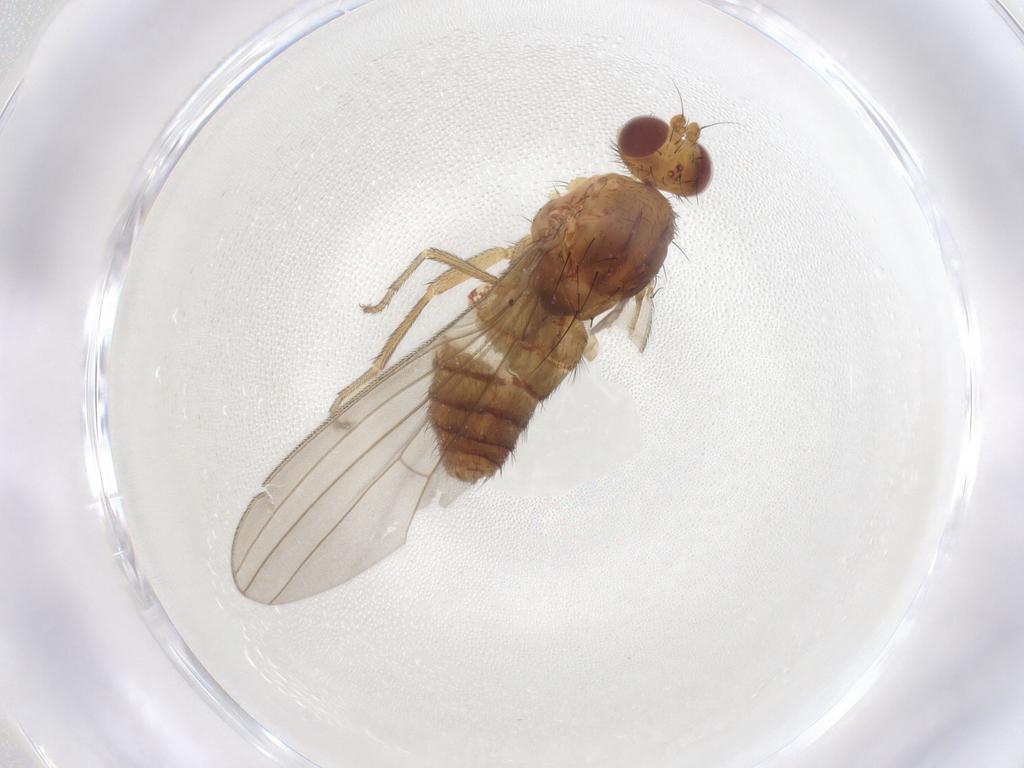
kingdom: Animalia
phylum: Arthropoda
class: Insecta
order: Diptera
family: Natalimyzidae
